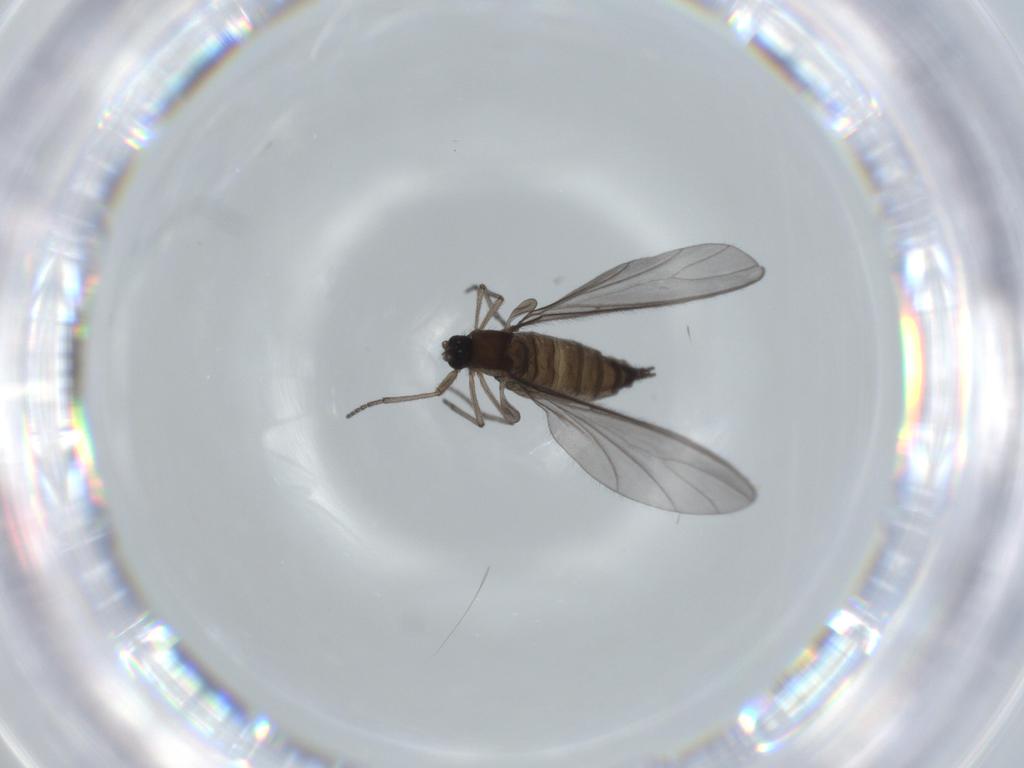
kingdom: Animalia
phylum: Arthropoda
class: Insecta
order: Diptera
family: Sciaridae
